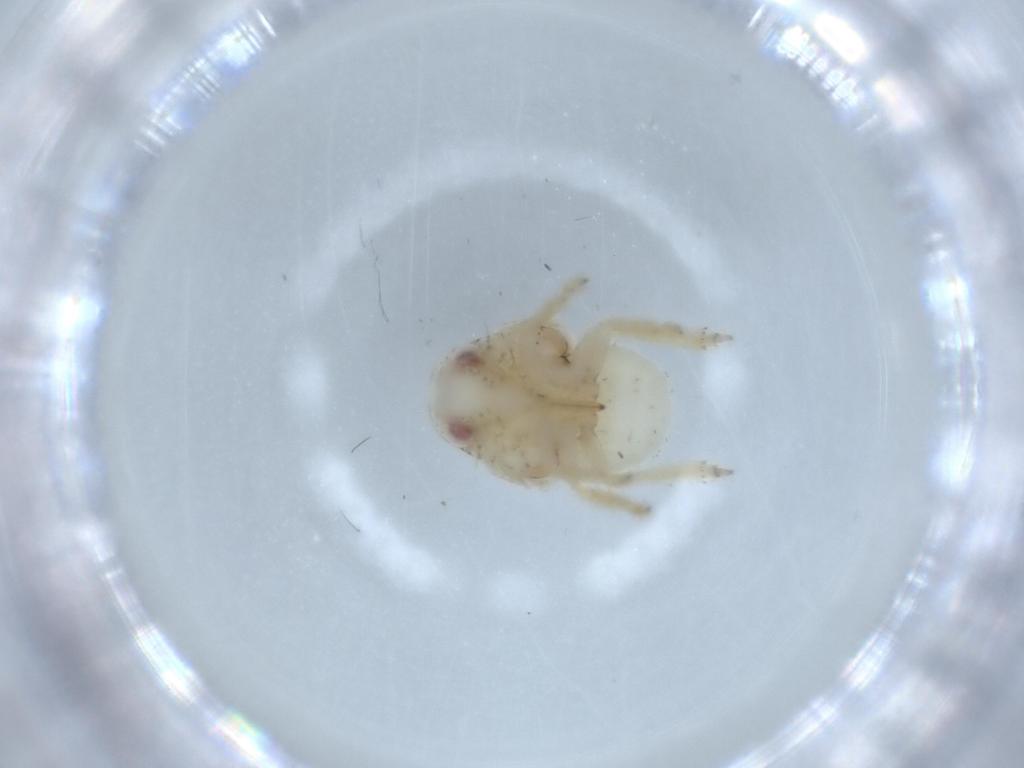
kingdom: Animalia
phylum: Arthropoda
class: Insecta
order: Hemiptera
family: Acanaloniidae
